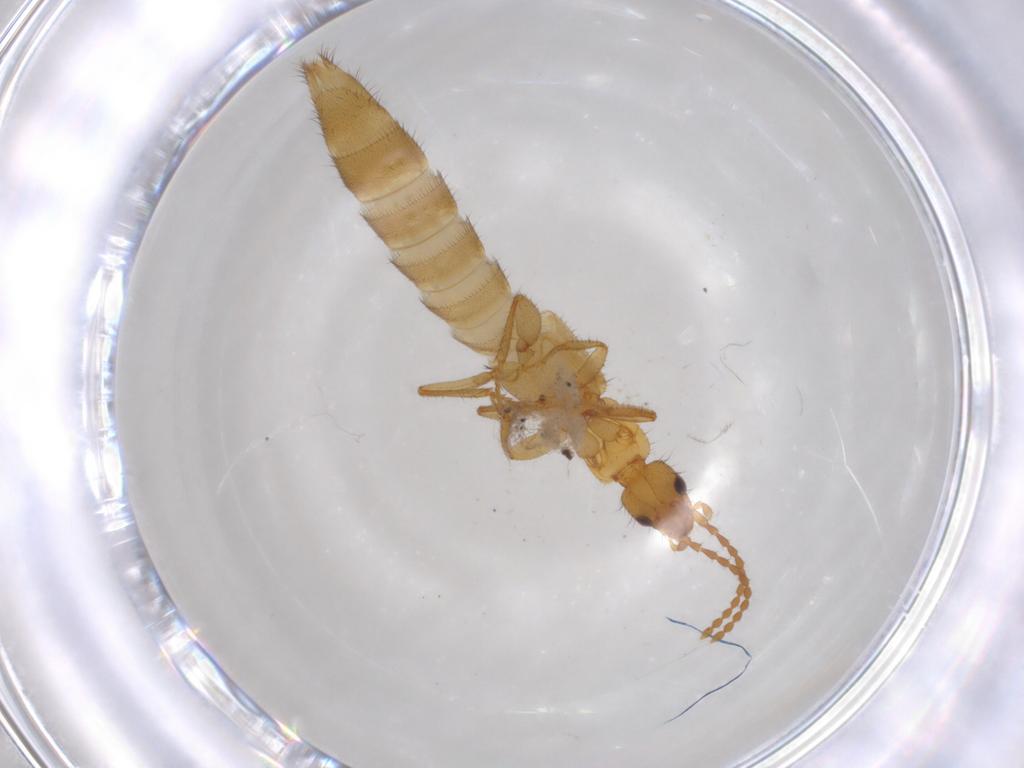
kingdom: Animalia
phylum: Arthropoda
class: Insecta
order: Coleoptera
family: Staphylinidae
